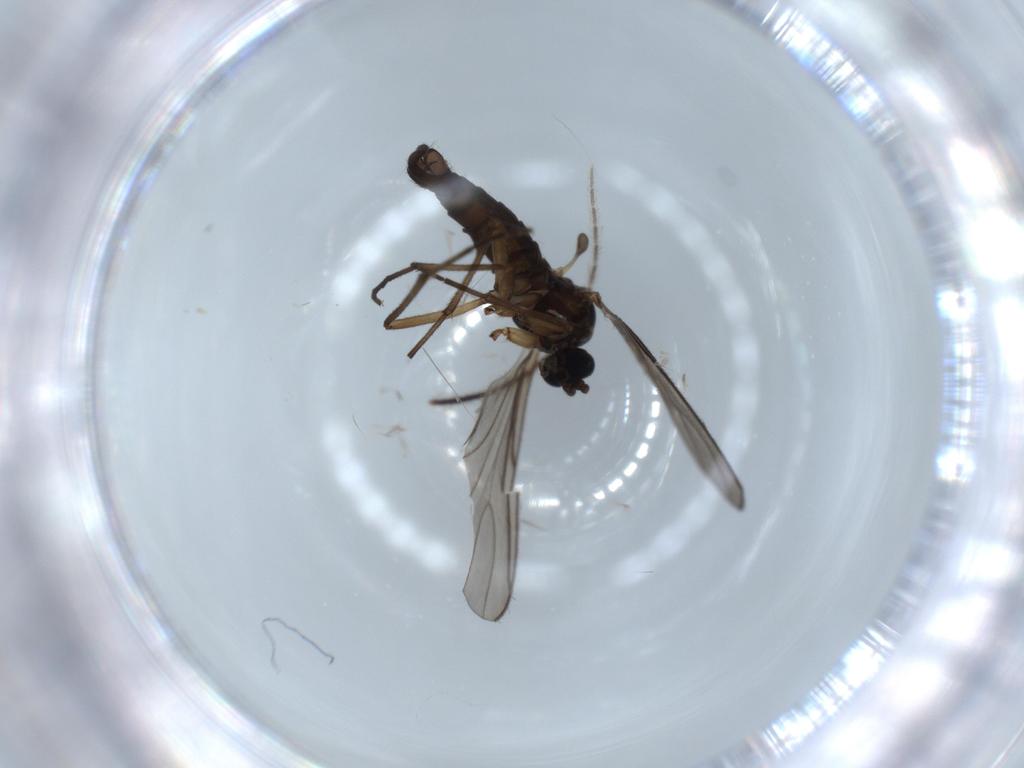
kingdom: Animalia
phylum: Arthropoda
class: Insecta
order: Diptera
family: Sciaridae
